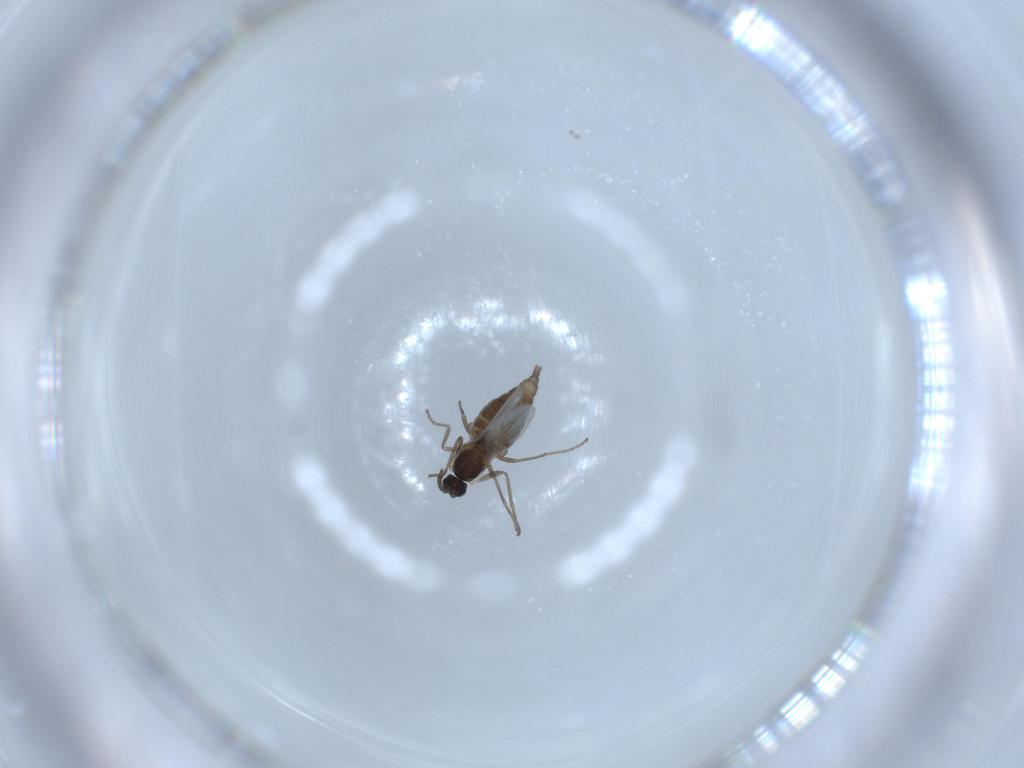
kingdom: Animalia
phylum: Arthropoda
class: Insecta
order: Diptera
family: Cecidomyiidae
